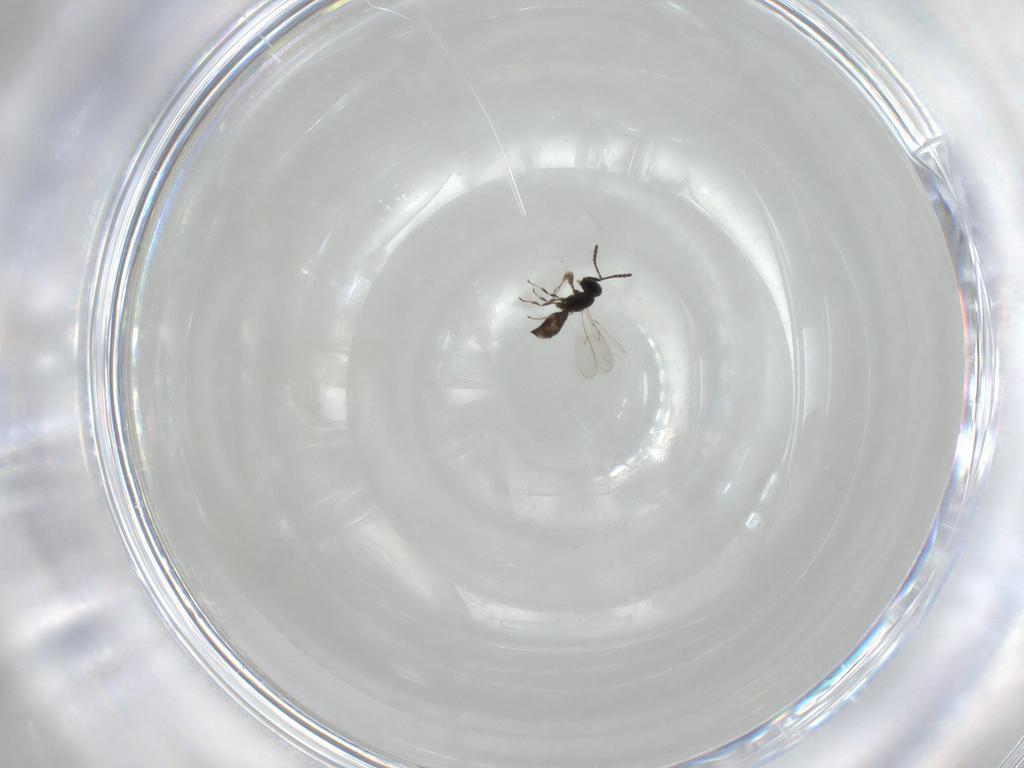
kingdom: Animalia
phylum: Arthropoda
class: Insecta
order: Hymenoptera
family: Scelionidae
